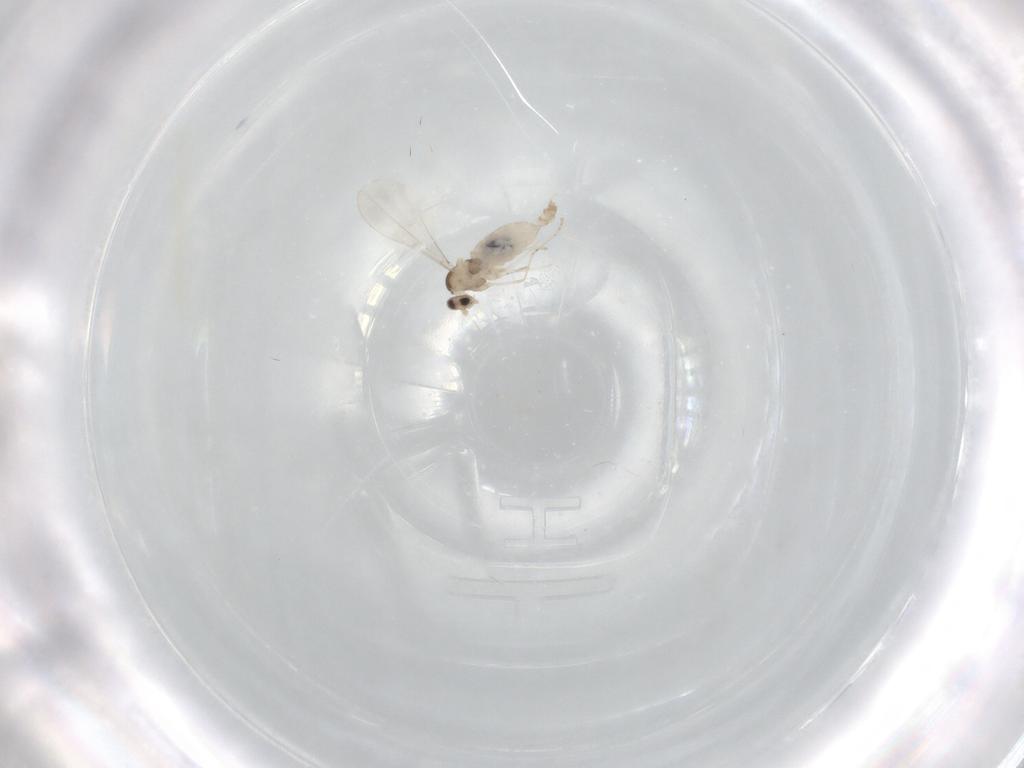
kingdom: Animalia
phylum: Arthropoda
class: Insecta
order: Diptera
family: Cecidomyiidae
